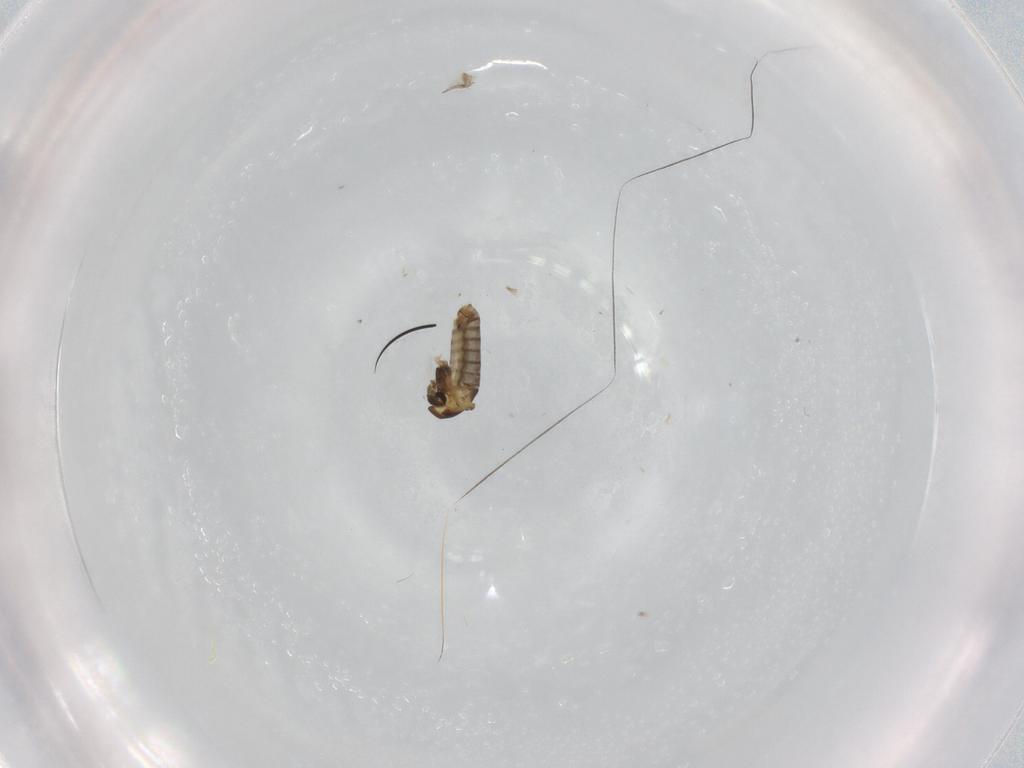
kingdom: Animalia
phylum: Arthropoda
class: Insecta
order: Diptera
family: Chironomidae
